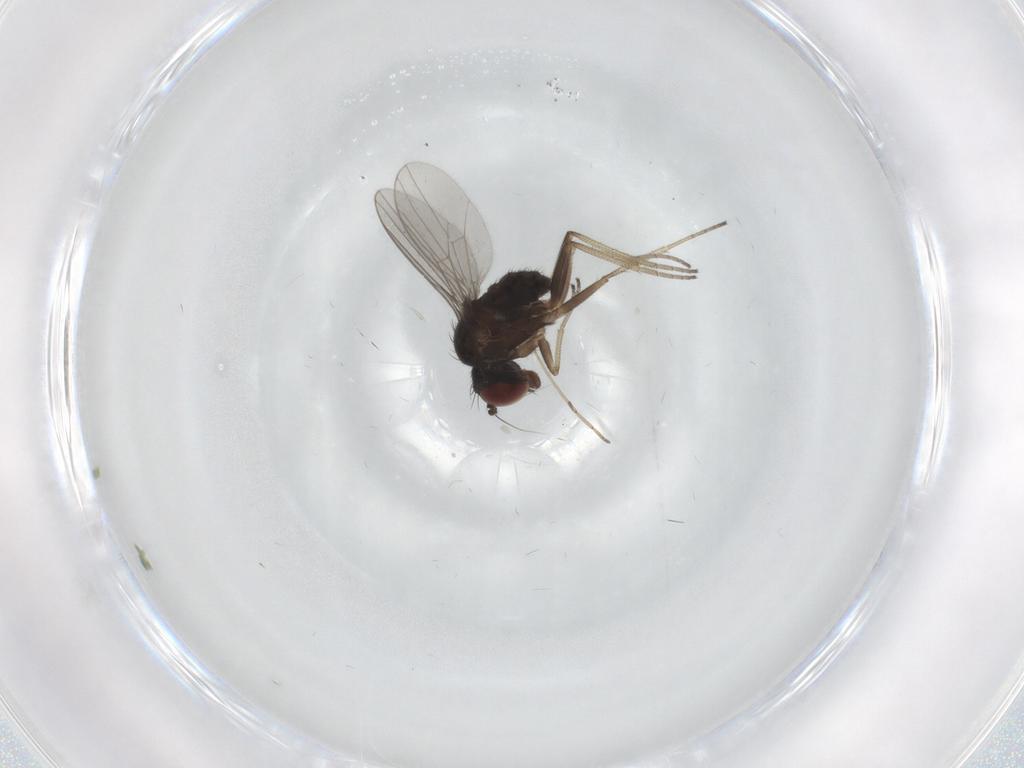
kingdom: Animalia
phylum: Arthropoda
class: Insecta
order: Diptera
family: Dolichopodidae
